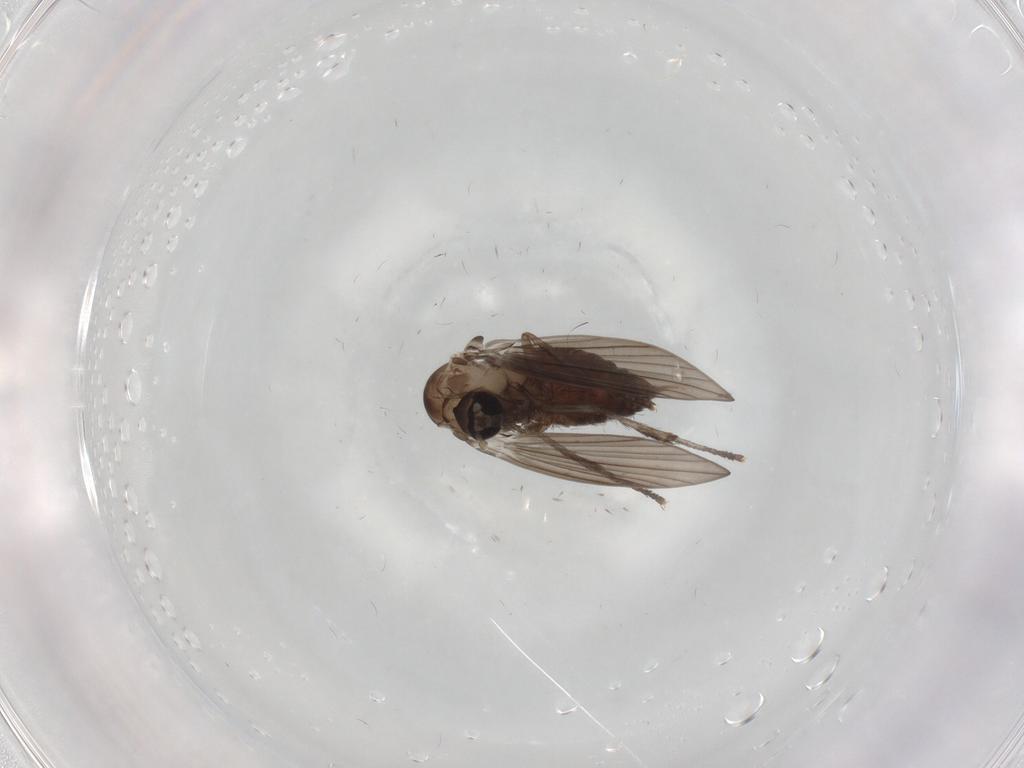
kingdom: Animalia
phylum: Arthropoda
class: Insecta
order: Diptera
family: Psychodidae
